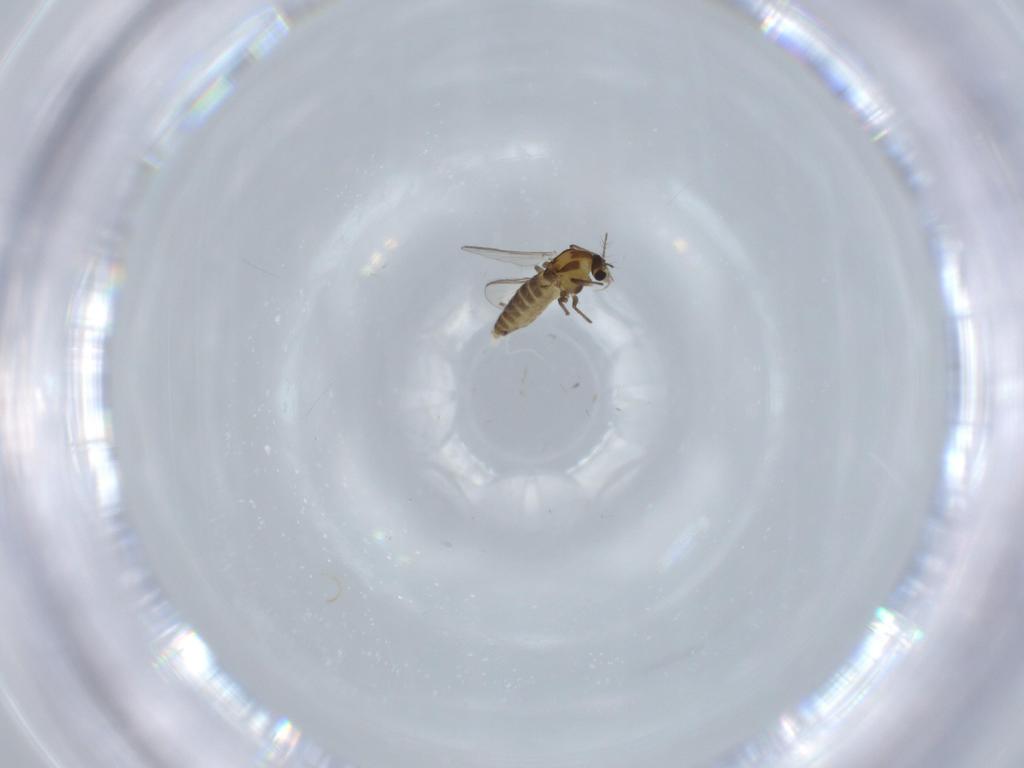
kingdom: Animalia
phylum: Arthropoda
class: Insecta
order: Diptera
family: Chironomidae
